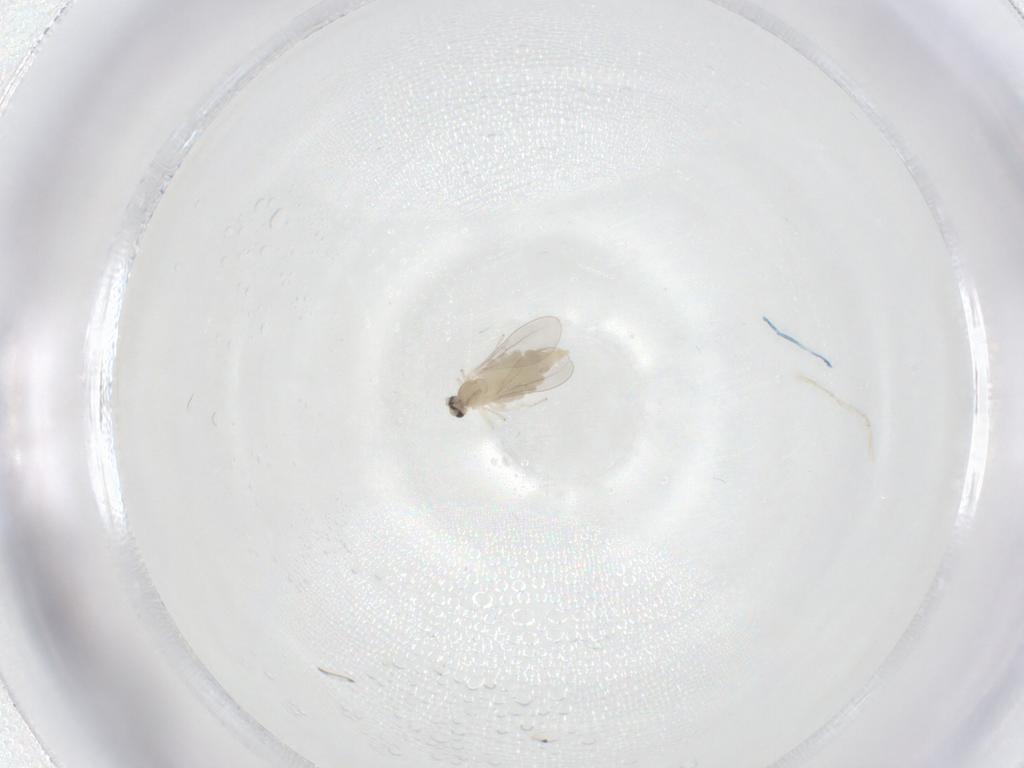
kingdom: Animalia
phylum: Arthropoda
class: Insecta
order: Diptera
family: Cecidomyiidae
